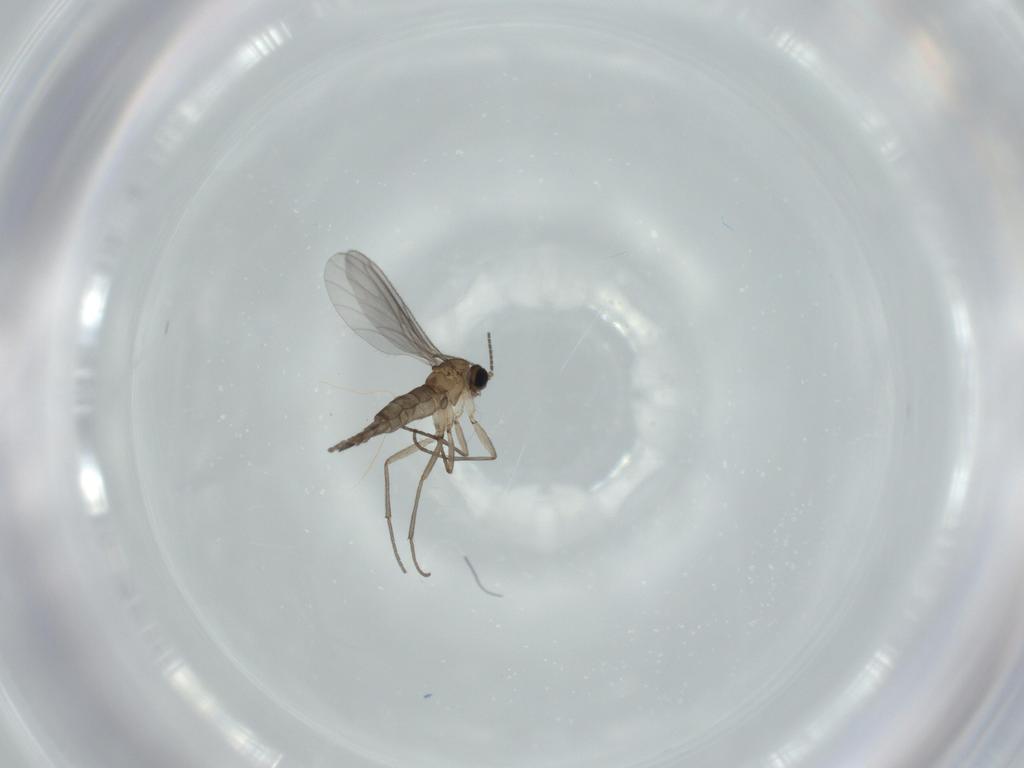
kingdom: Animalia
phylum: Arthropoda
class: Insecta
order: Diptera
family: Sciaridae
